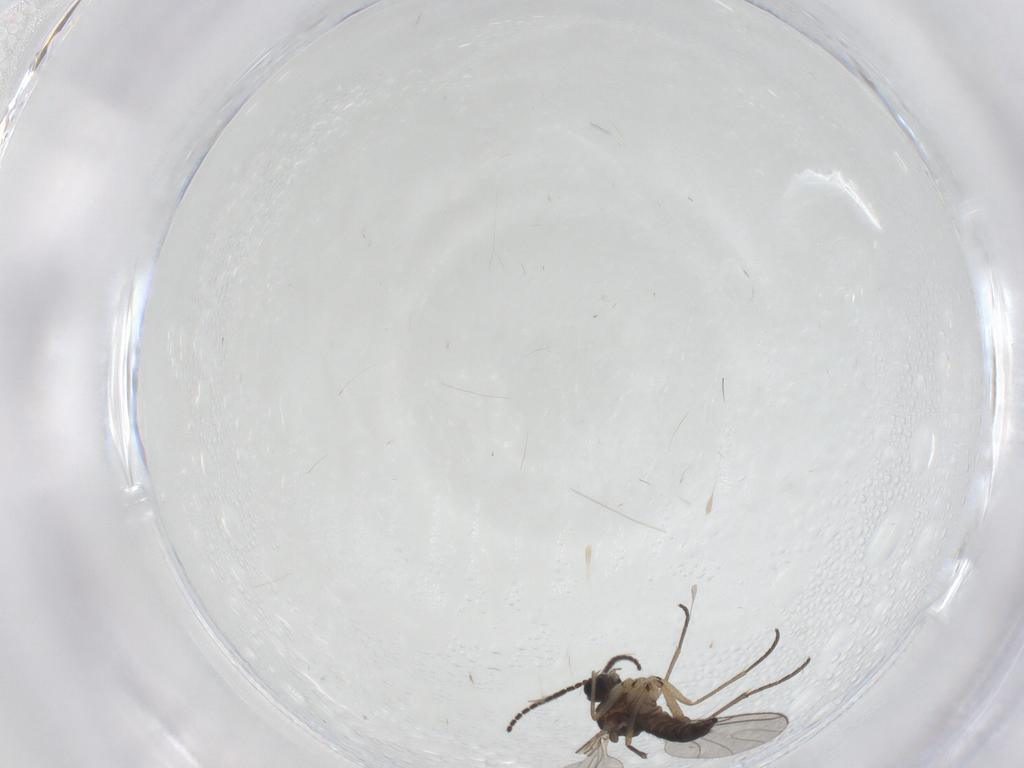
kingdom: Animalia
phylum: Arthropoda
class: Insecta
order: Diptera
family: Sciaridae
